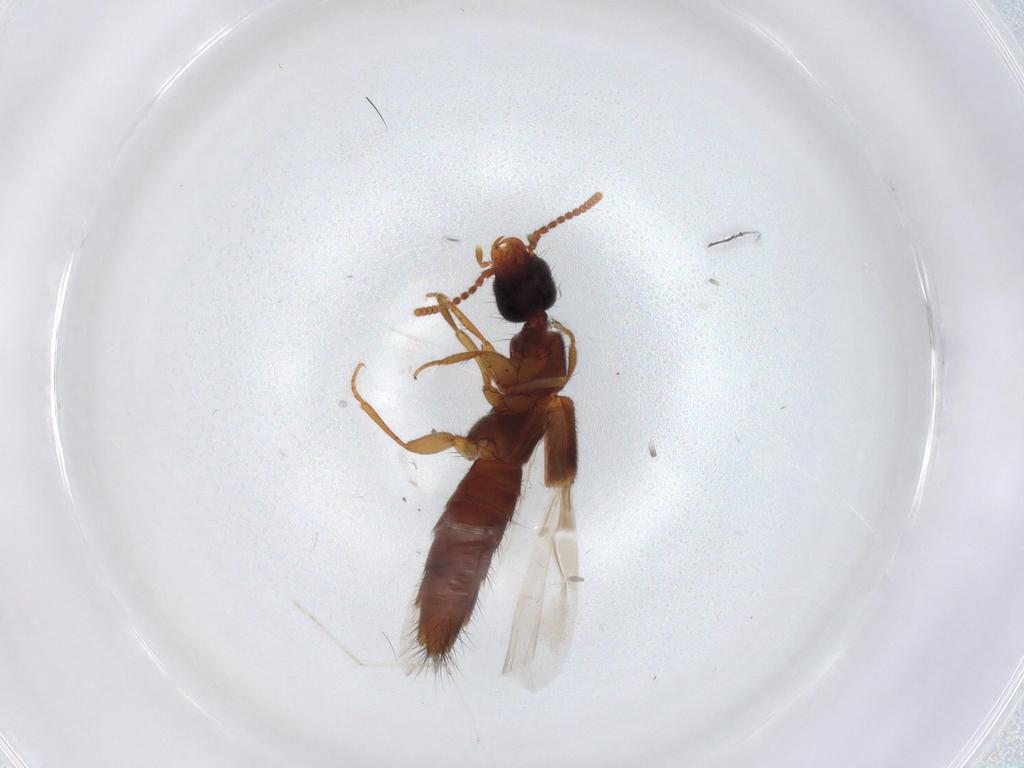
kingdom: Animalia
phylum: Arthropoda
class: Insecta
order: Coleoptera
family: Staphylinidae
